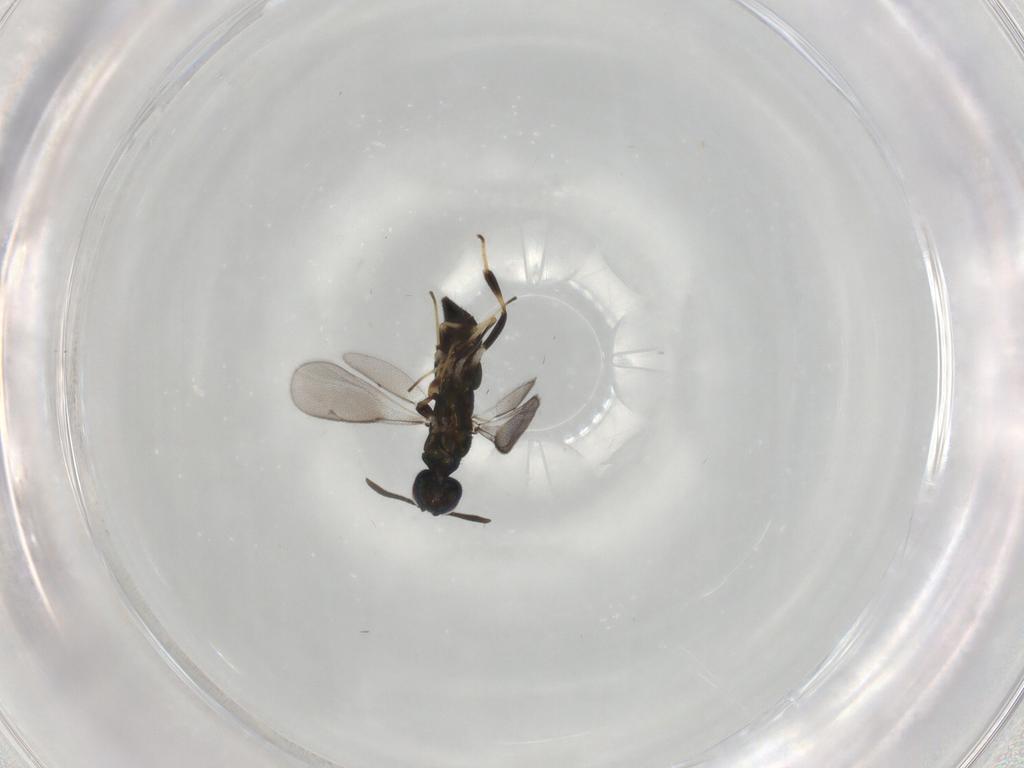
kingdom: Animalia
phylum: Arthropoda
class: Insecta
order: Hymenoptera
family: Eupelmidae
